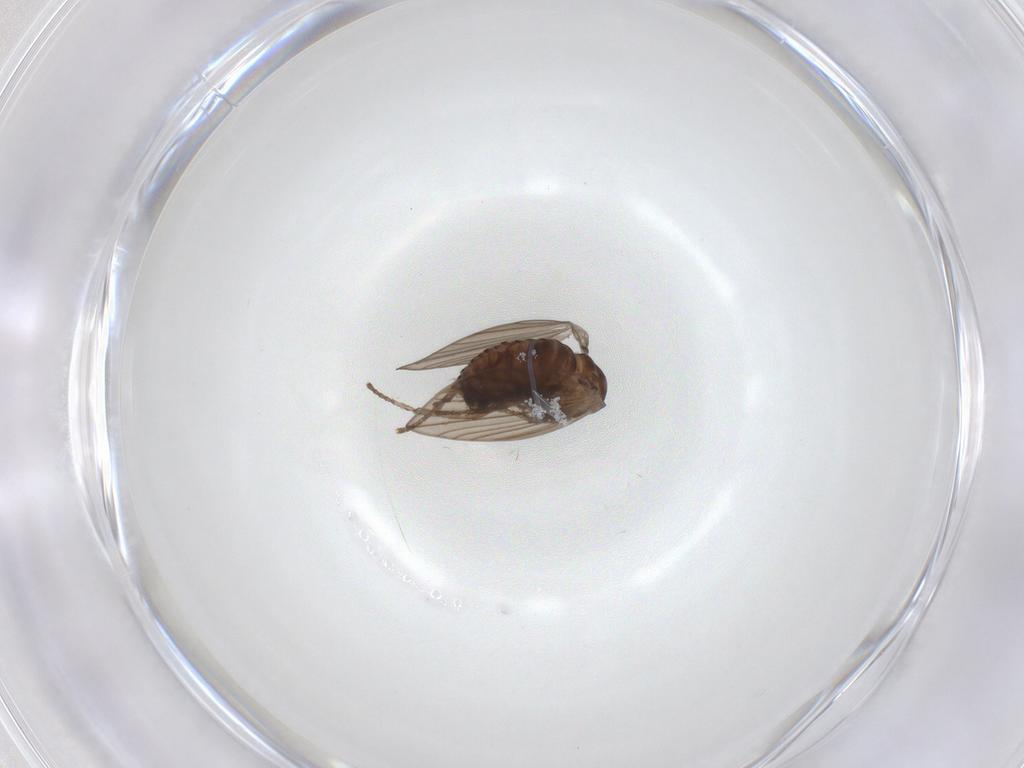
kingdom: Animalia
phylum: Arthropoda
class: Insecta
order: Diptera
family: Psychodidae
